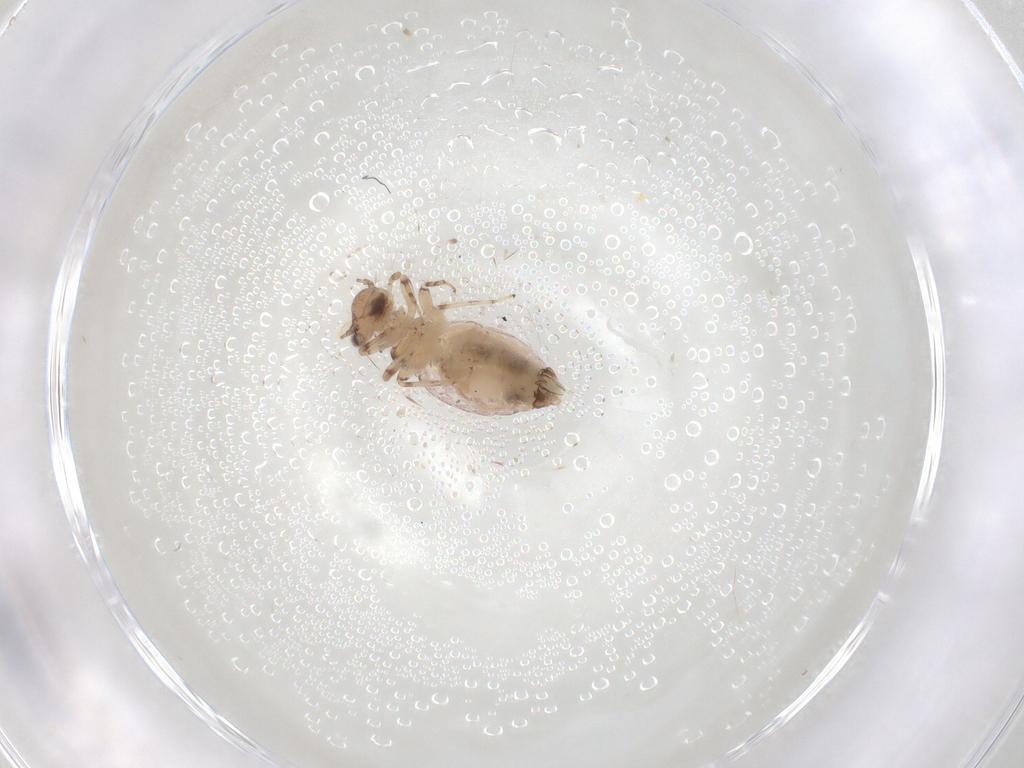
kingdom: Animalia
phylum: Arthropoda
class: Insecta
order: Psocodea
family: Trogiidae
